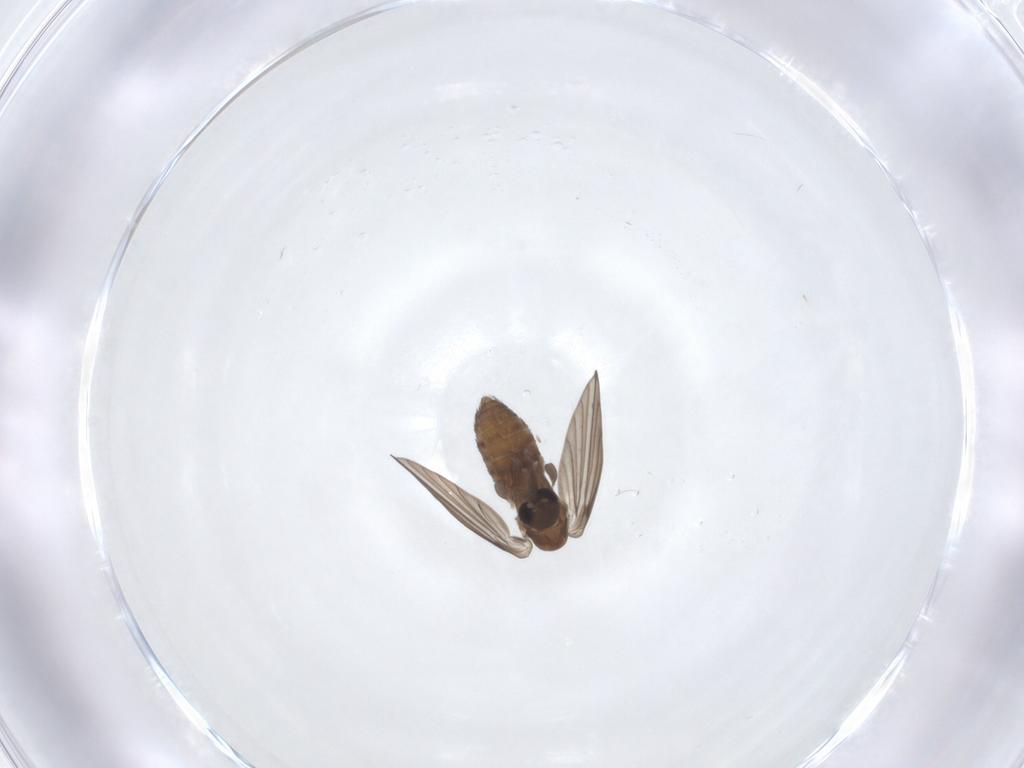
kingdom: Animalia
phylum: Arthropoda
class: Insecta
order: Diptera
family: Psychodidae
